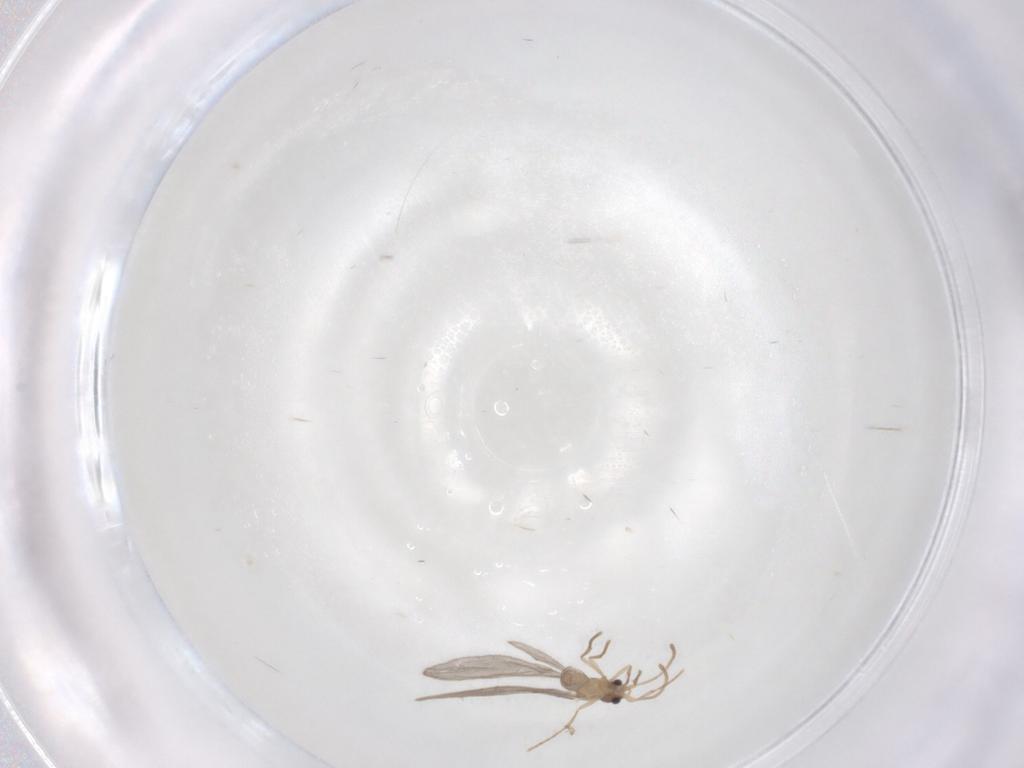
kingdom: Animalia
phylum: Arthropoda
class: Insecta
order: Hymenoptera
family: Formicidae
